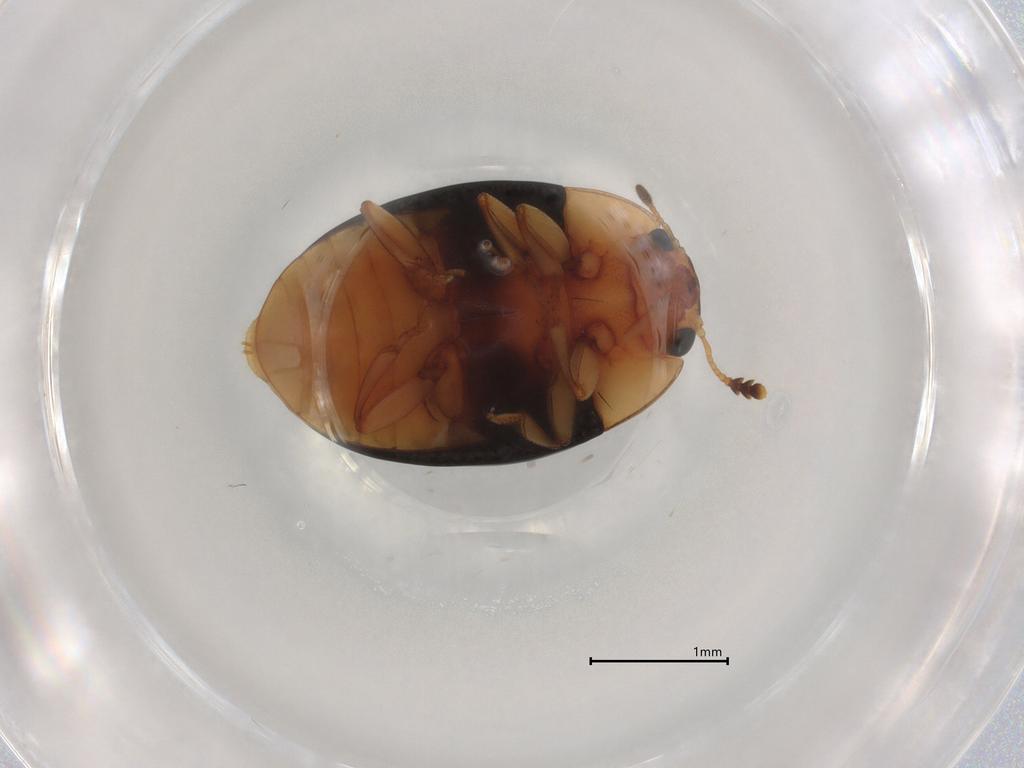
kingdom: Animalia
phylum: Arthropoda
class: Insecta
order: Coleoptera
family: Erotylidae
